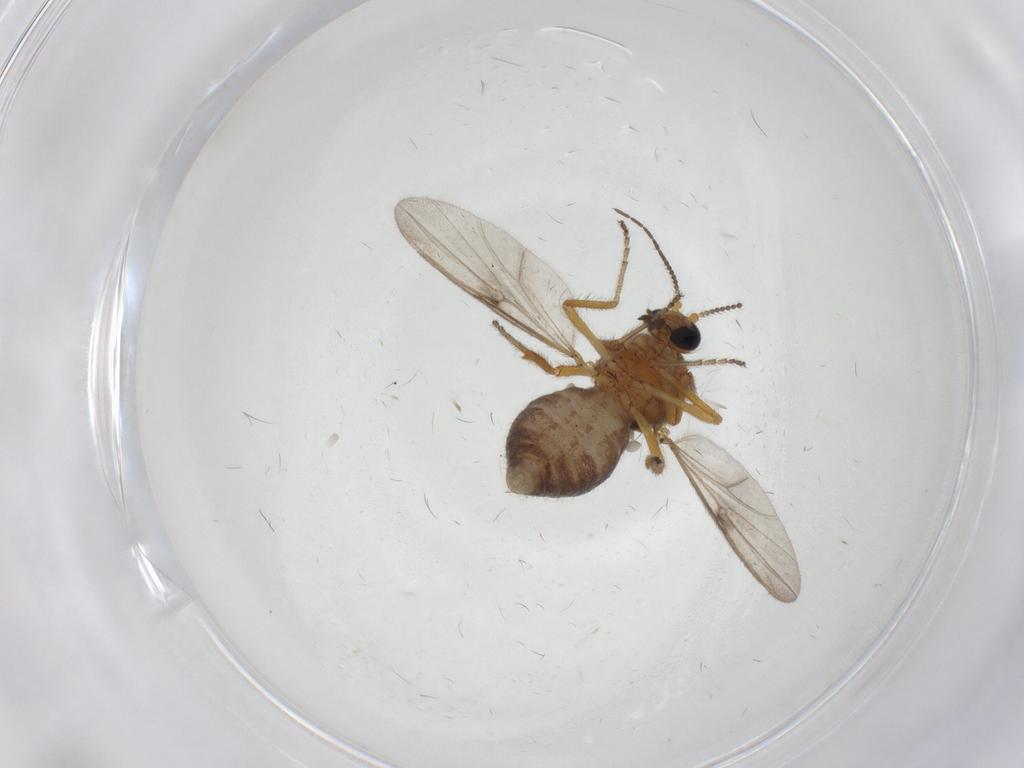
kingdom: Animalia
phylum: Arthropoda
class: Insecta
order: Diptera
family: Ceratopogonidae
